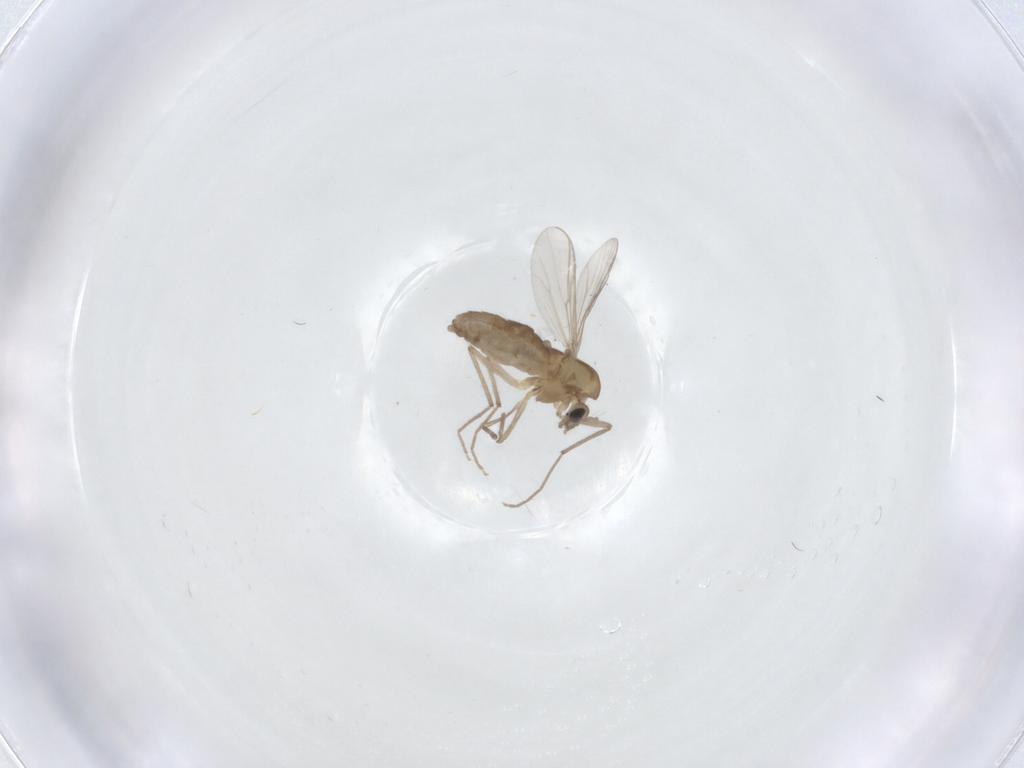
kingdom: Animalia
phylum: Arthropoda
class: Insecta
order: Diptera
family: Chironomidae
